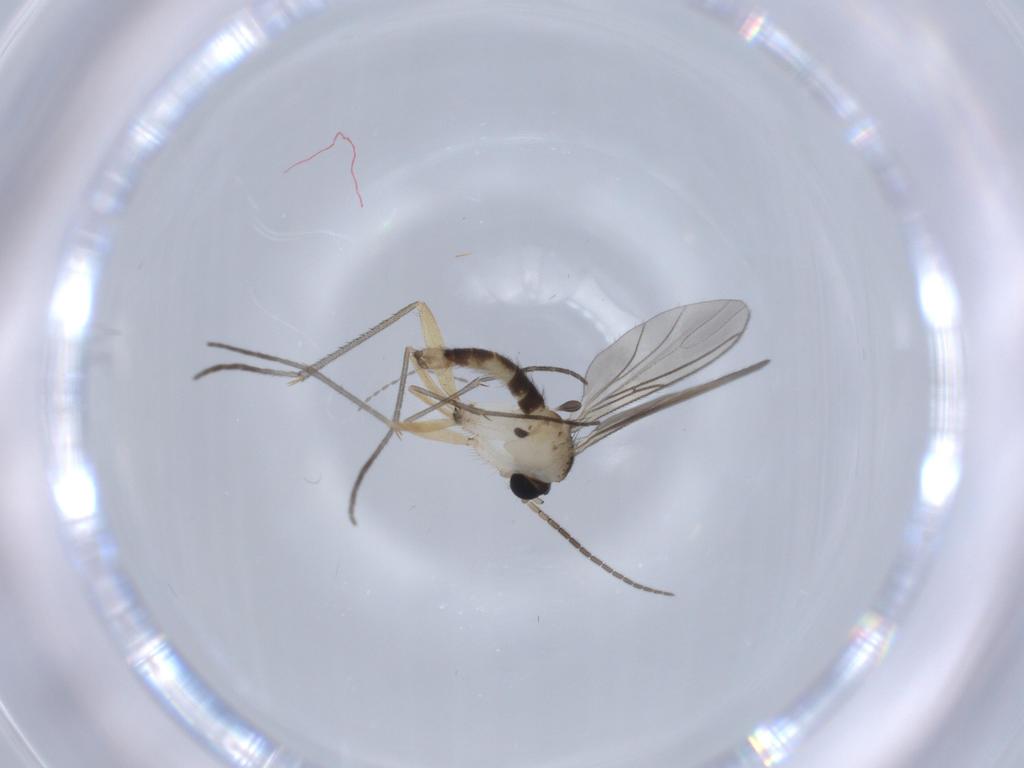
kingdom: Animalia
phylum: Arthropoda
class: Insecta
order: Diptera
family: Sciaridae
